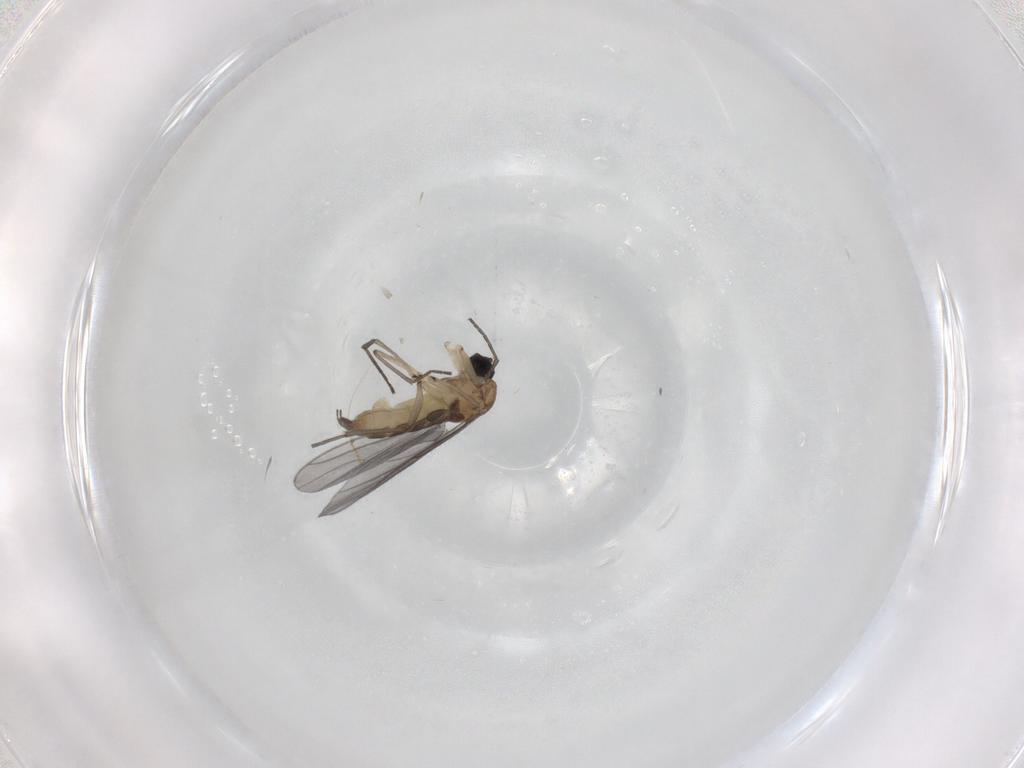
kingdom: Animalia
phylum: Arthropoda
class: Insecta
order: Diptera
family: Sciaridae
